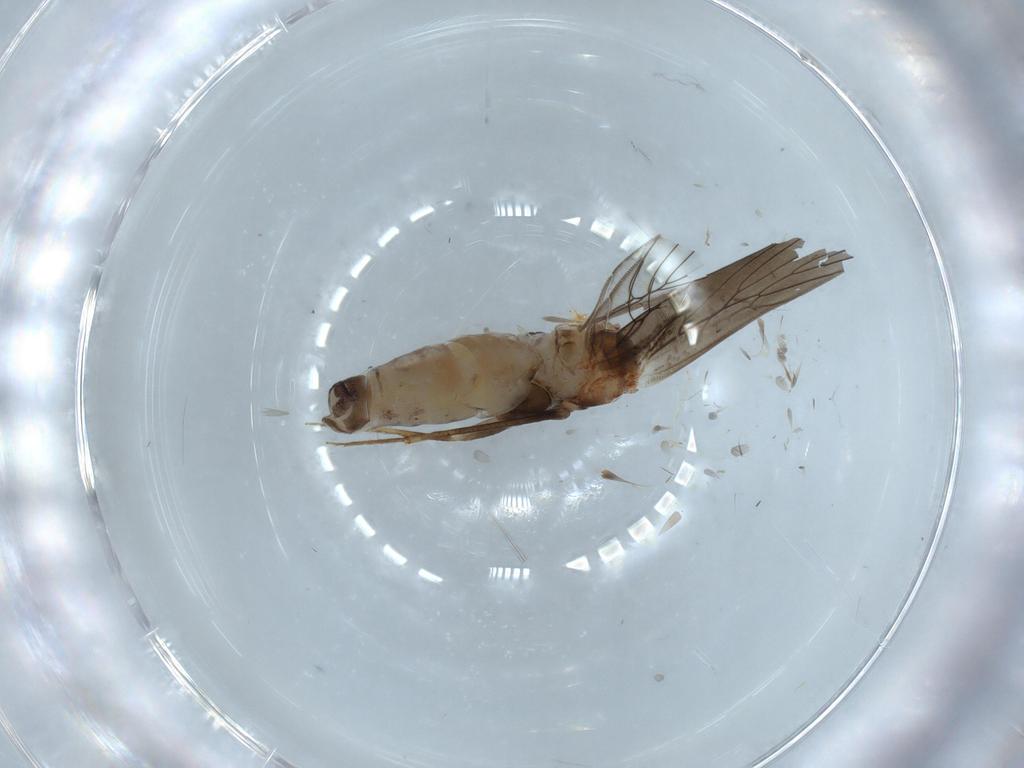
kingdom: Animalia
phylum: Arthropoda
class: Insecta
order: Psocodea
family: Lepidopsocidae
